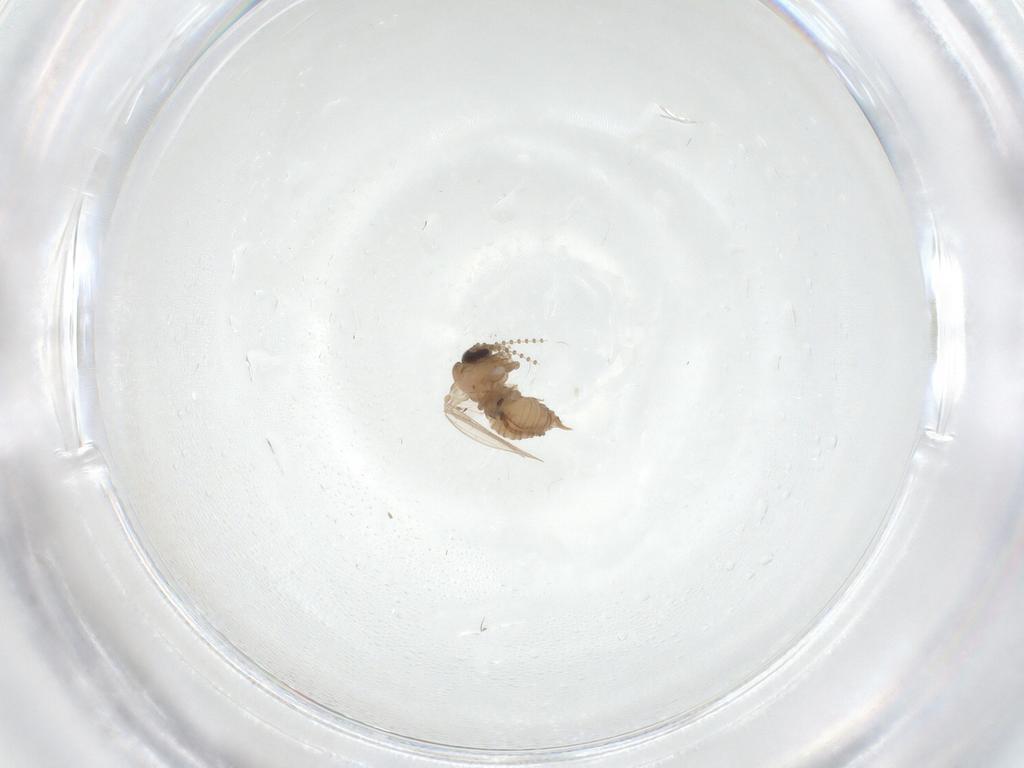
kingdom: Animalia
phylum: Arthropoda
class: Insecta
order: Diptera
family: Psychodidae
